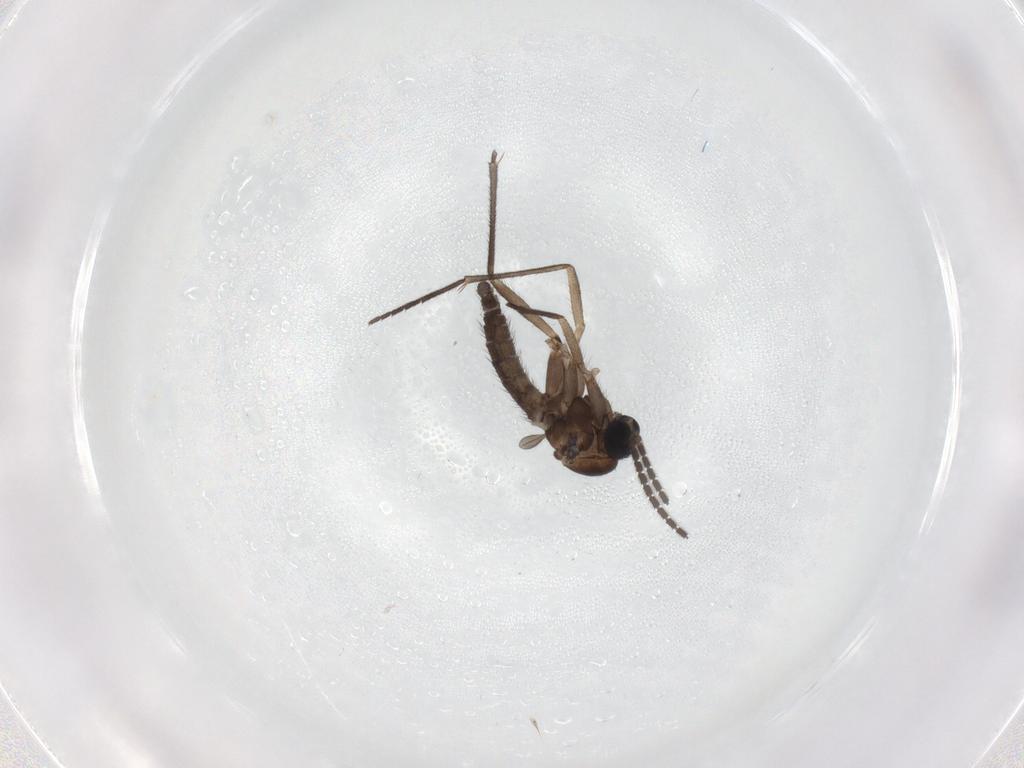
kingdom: Animalia
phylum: Arthropoda
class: Insecta
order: Diptera
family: Sciaridae
